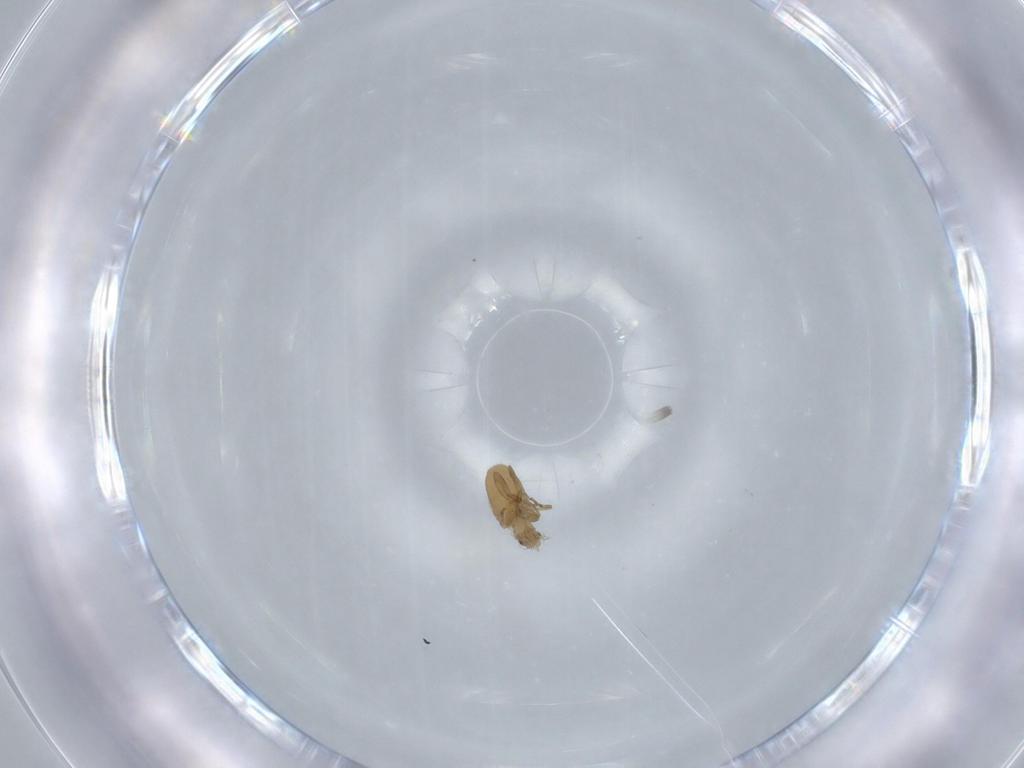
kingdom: Animalia
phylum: Arthropoda
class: Insecta
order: Diptera
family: Phoridae
